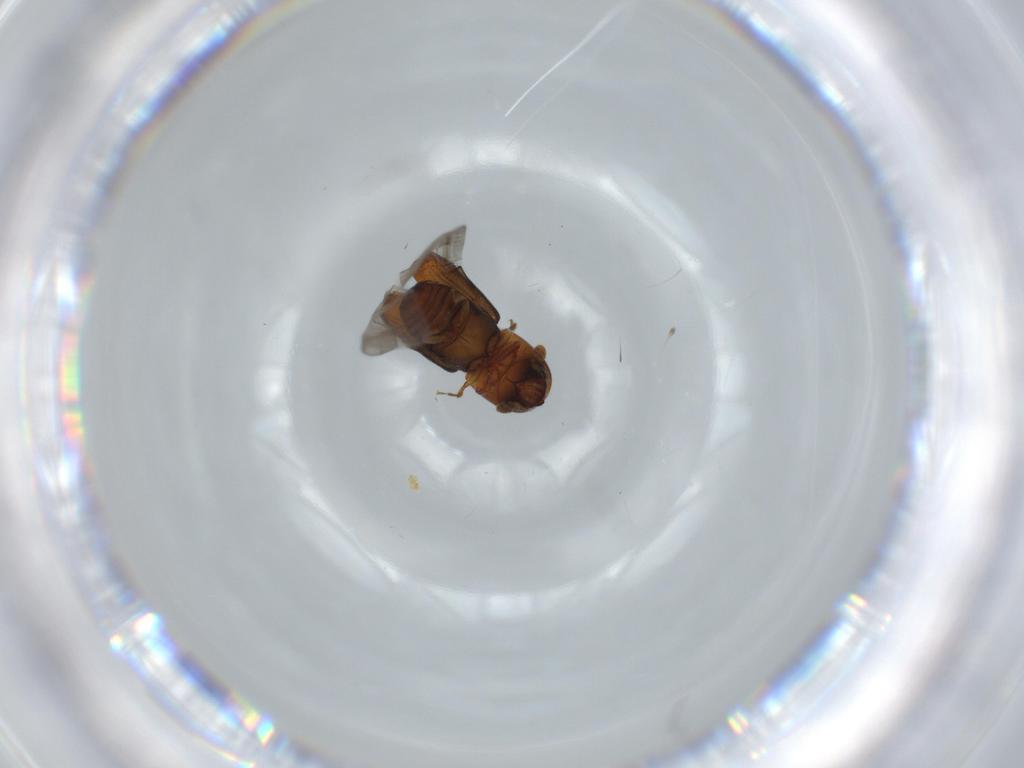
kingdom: Animalia
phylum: Arthropoda
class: Insecta
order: Coleoptera
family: Curculionidae
